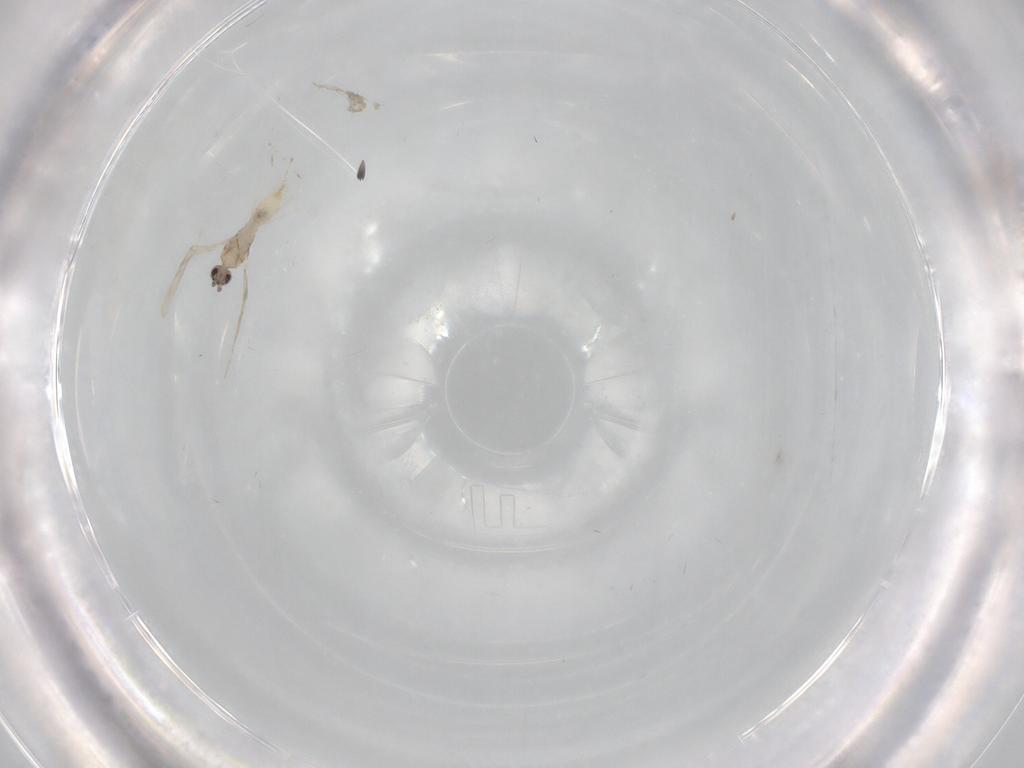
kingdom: Animalia
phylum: Arthropoda
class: Insecta
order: Diptera
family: Cecidomyiidae
